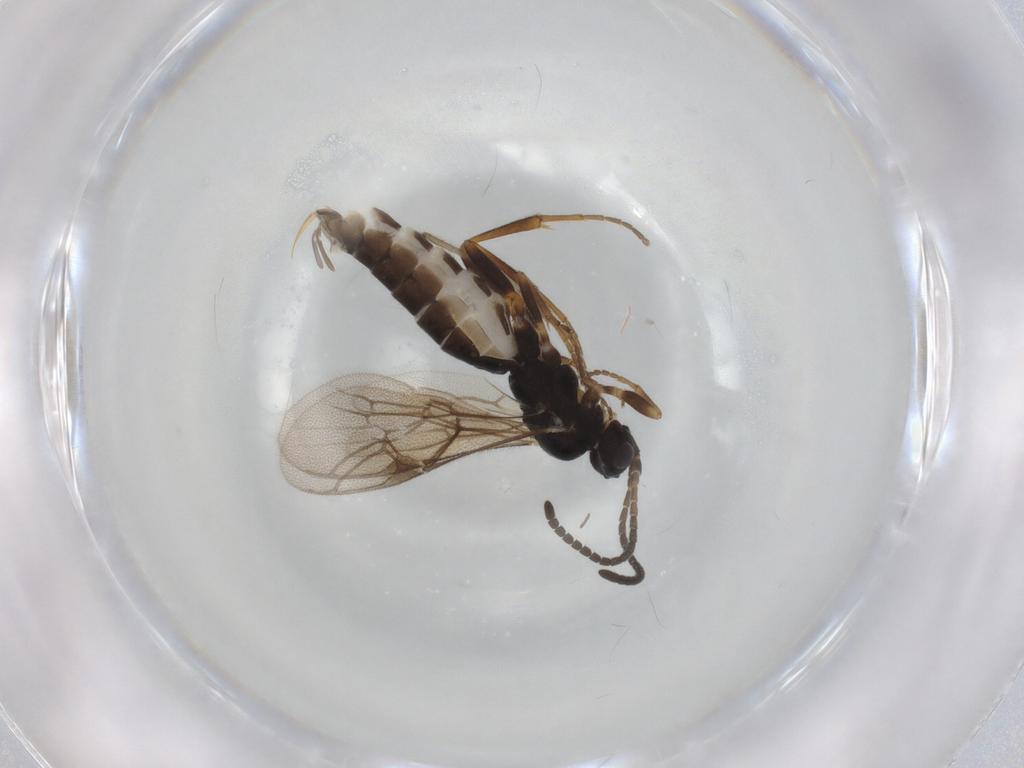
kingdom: Animalia
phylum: Arthropoda
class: Insecta
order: Hymenoptera
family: Ichneumonidae
